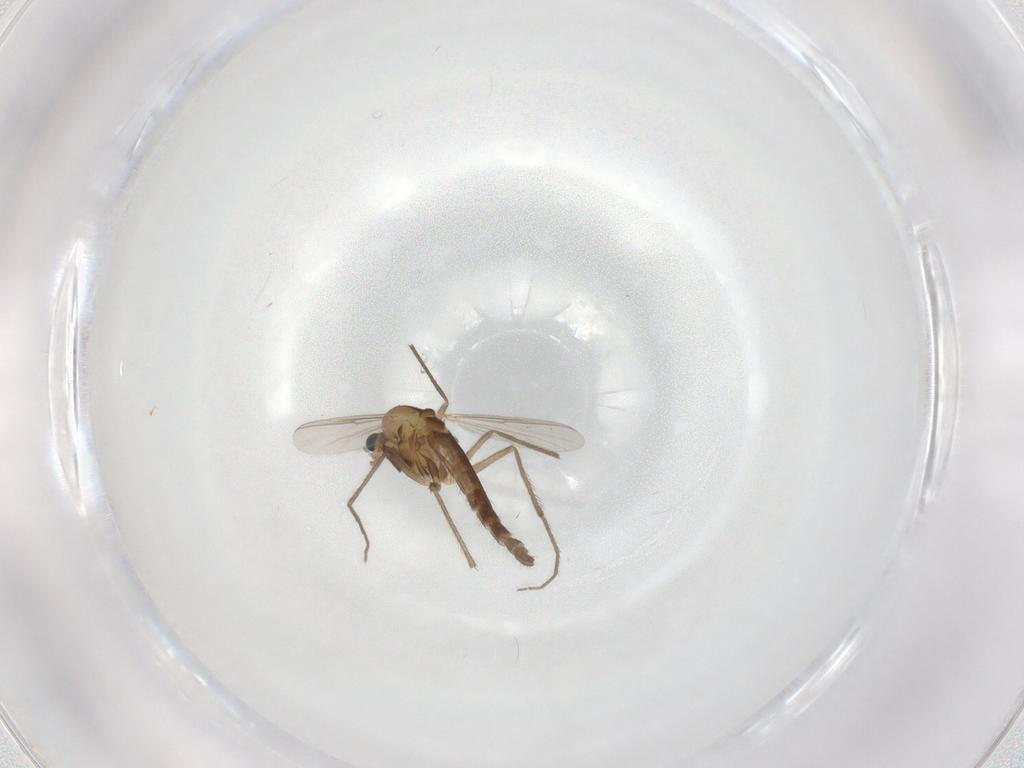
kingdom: Animalia
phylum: Arthropoda
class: Insecta
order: Diptera
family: Chironomidae
